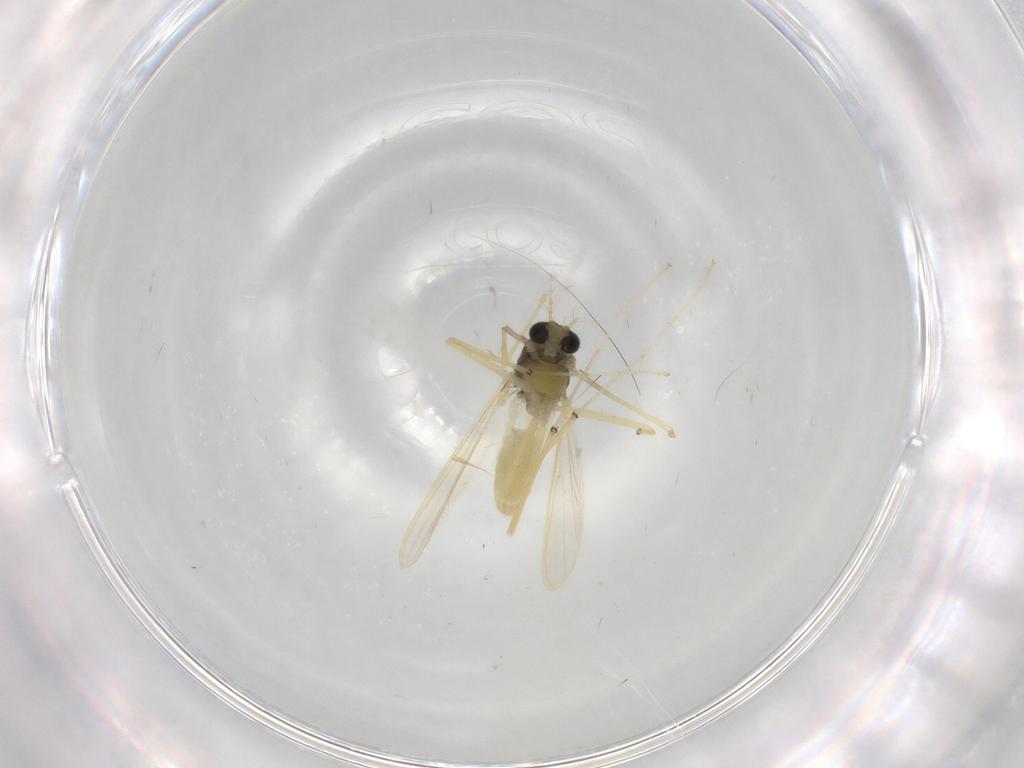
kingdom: Animalia
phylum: Arthropoda
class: Insecta
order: Diptera
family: Chironomidae
